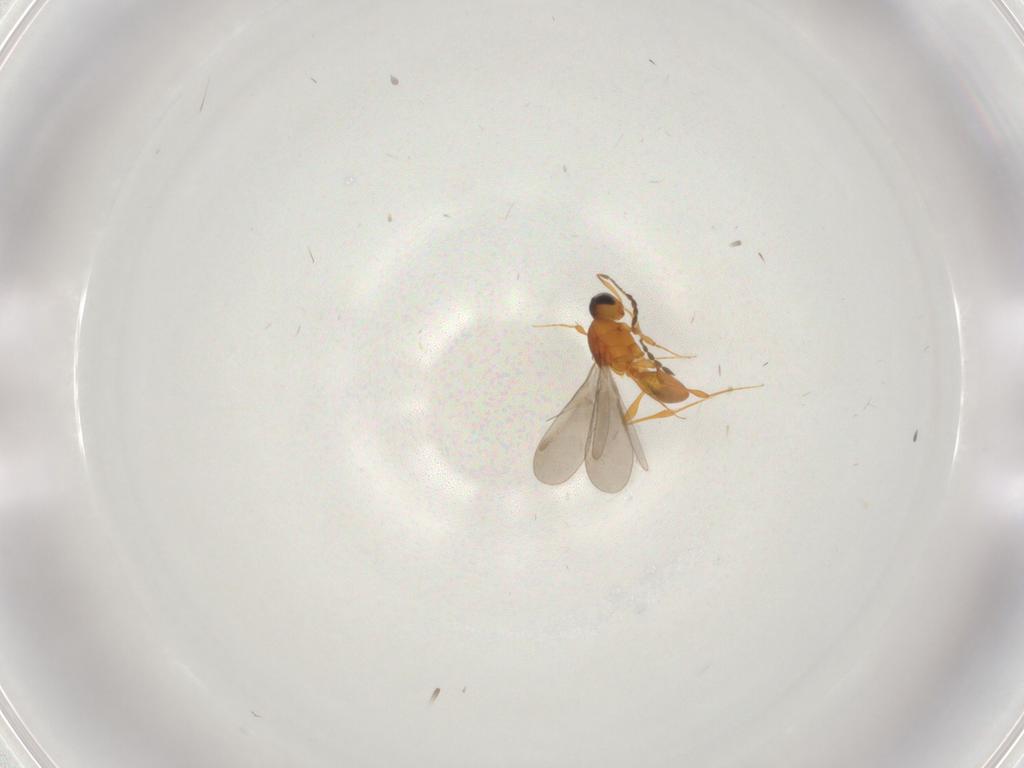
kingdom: Animalia
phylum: Arthropoda
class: Insecta
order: Hymenoptera
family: Platygastridae
